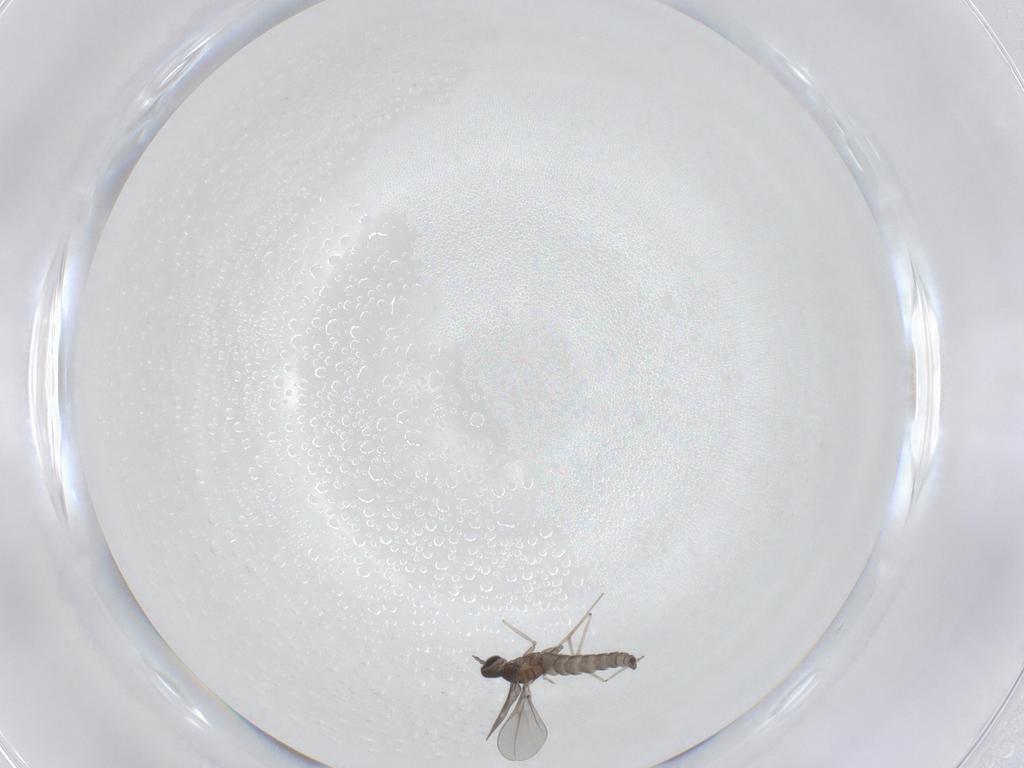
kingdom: Animalia
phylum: Arthropoda
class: Insecta
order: Diptera
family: Cecidomyiidae
